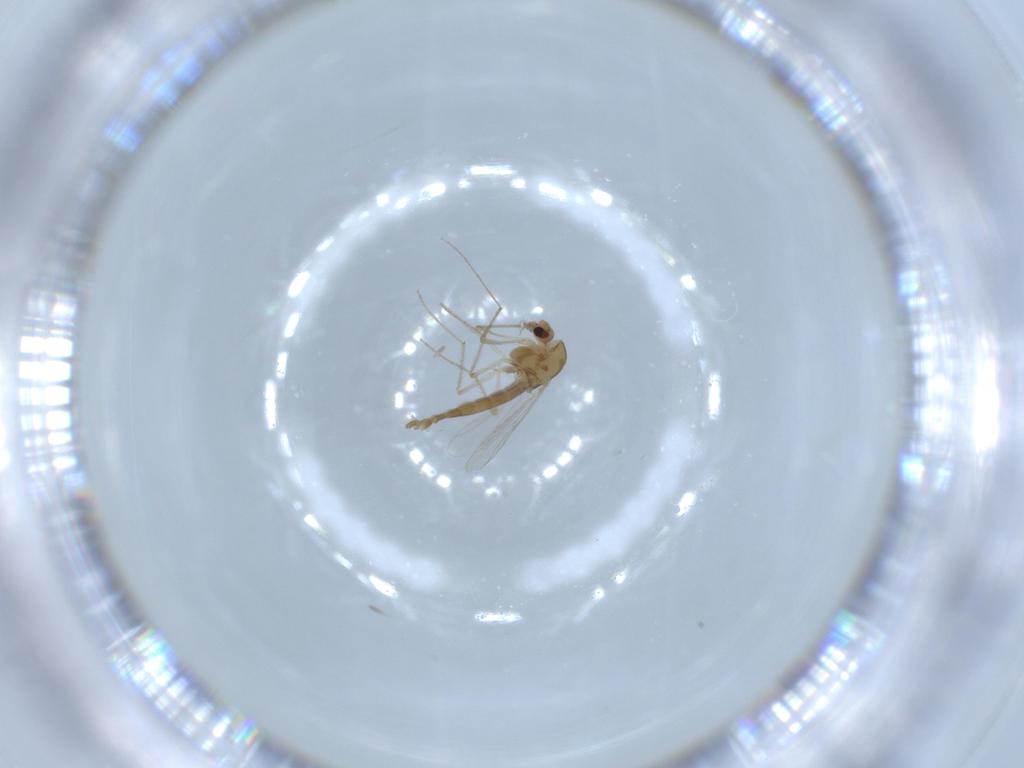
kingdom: Animalia
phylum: Arthropoda
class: Insecta
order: Diptera
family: Chironomidae
